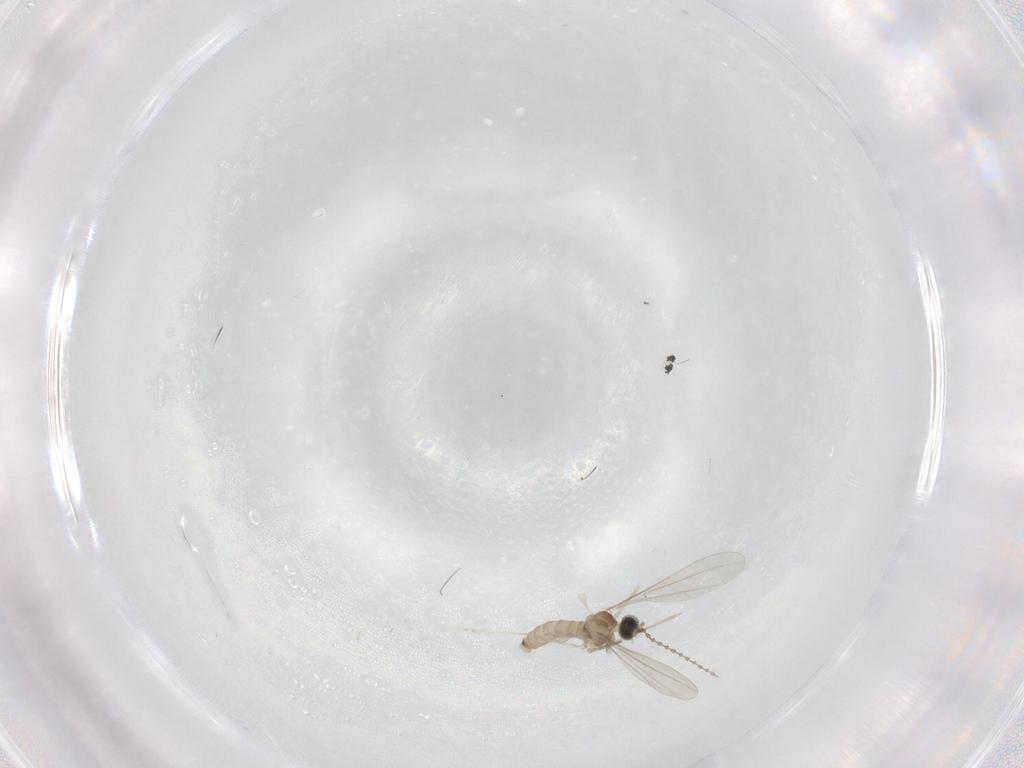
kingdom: Animalia
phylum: Arthropoda
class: Insecta
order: Diptera
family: Cecidomyiidae
